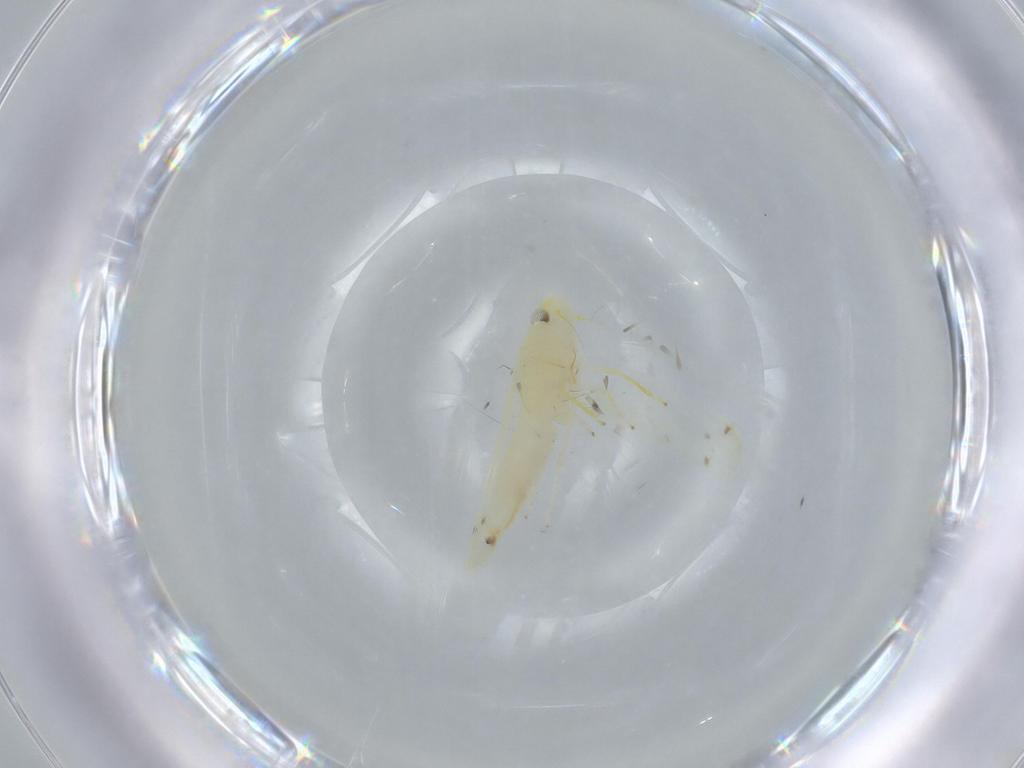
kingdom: Animalia
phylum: Arthropoda
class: Insecta
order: Hemiptera
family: Cicadellidae
